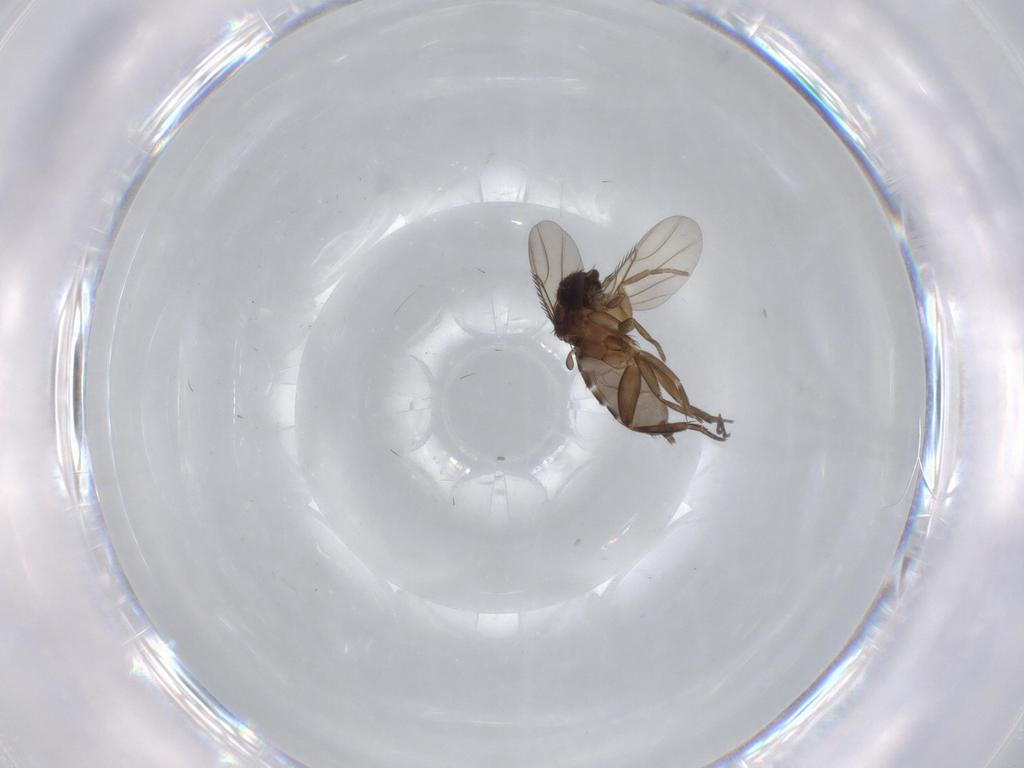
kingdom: Animalia
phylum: Arthropoda
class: Insecta
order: Diptera
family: Phoridae
